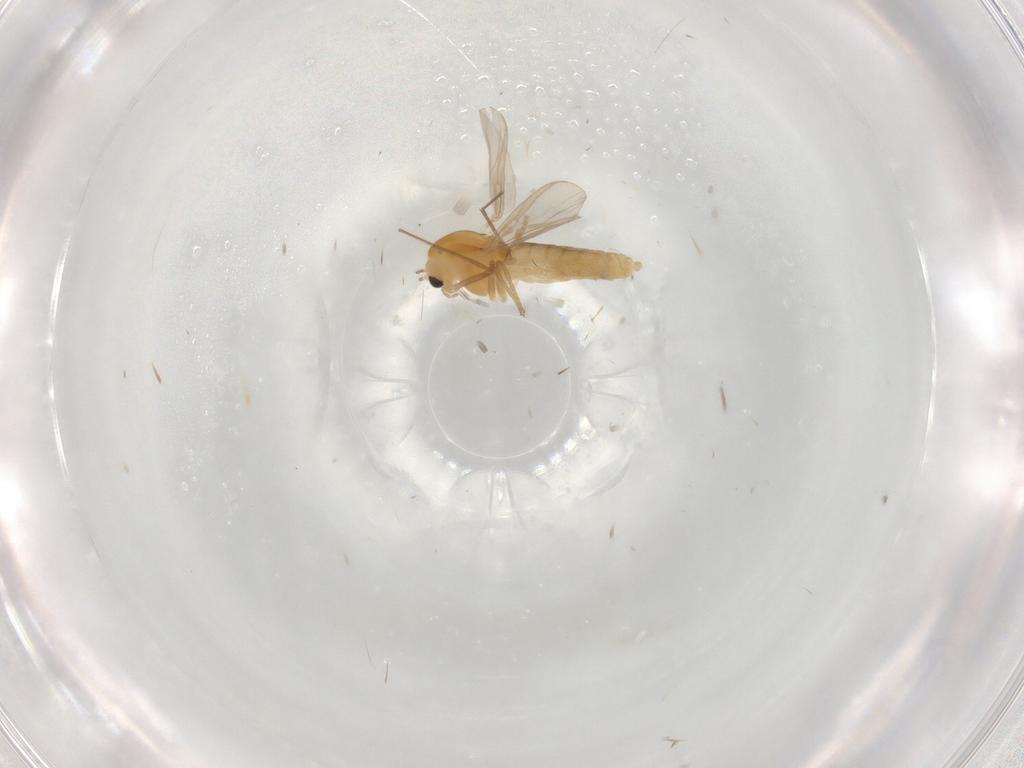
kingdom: Animalia
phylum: Arthropoda
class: Insecta
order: Diptera
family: Chironomidae
